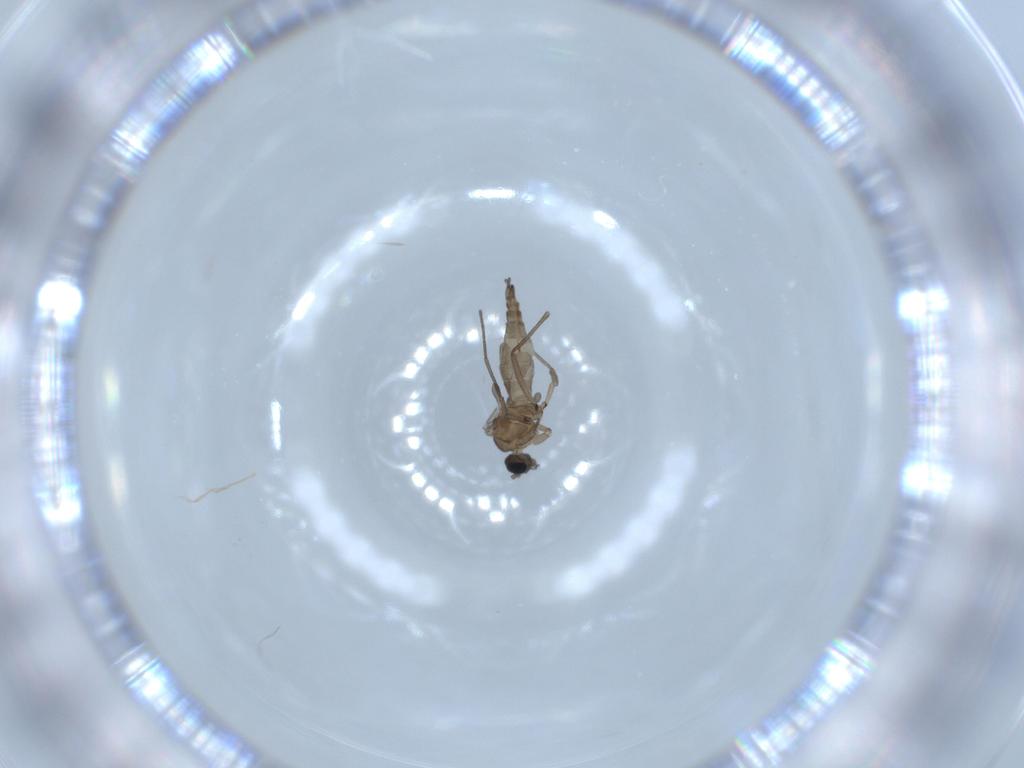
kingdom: Animalia
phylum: Arthropoda
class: Insecta
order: Diptera
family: Sciaridae
